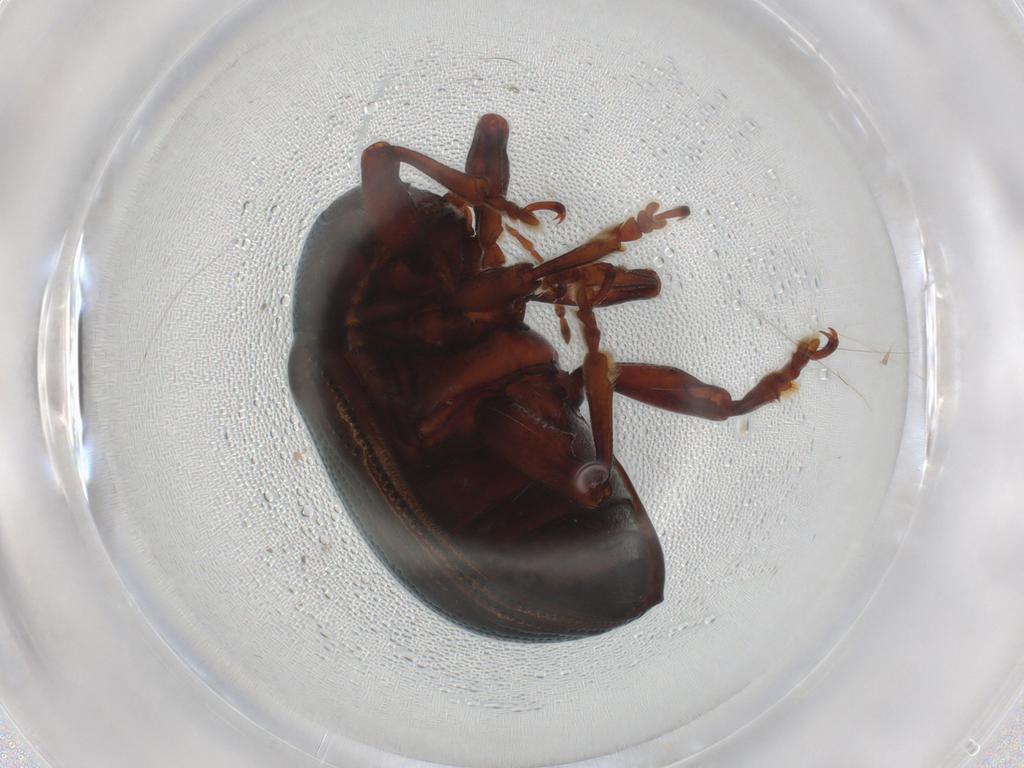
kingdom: Animalia
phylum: Arthropoda
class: Insecta
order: Coleoptera
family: Chrysomelidae
